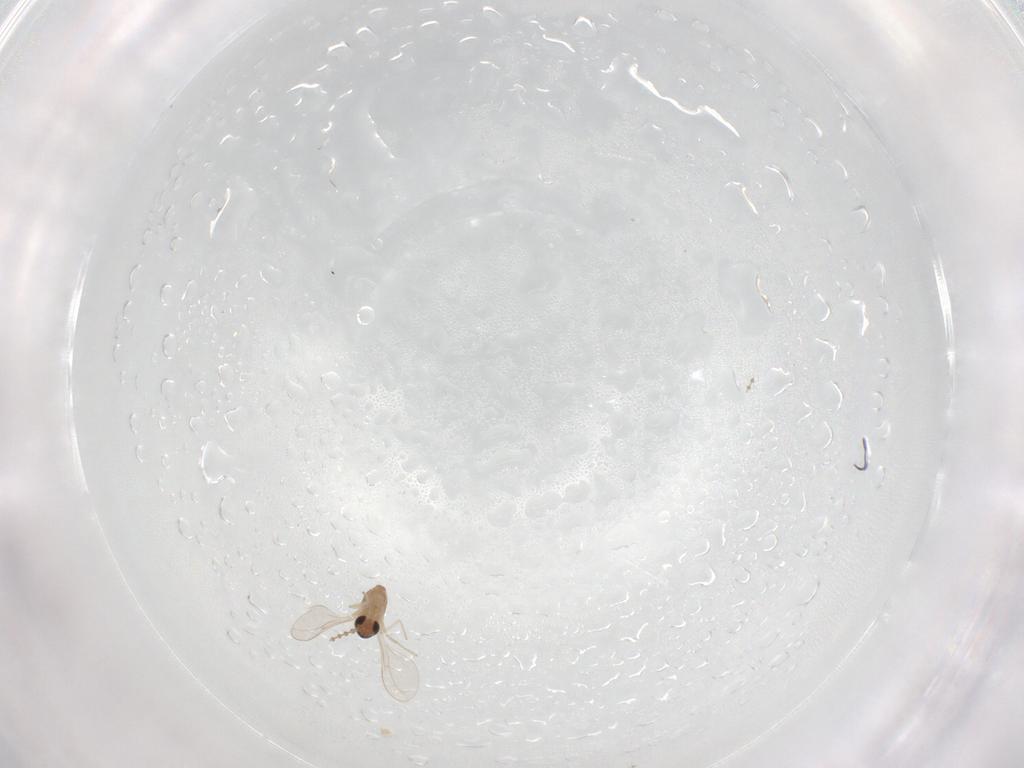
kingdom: Animalia
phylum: Arthropoda
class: Insecta
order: Diptera
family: Cecidomyiidae
